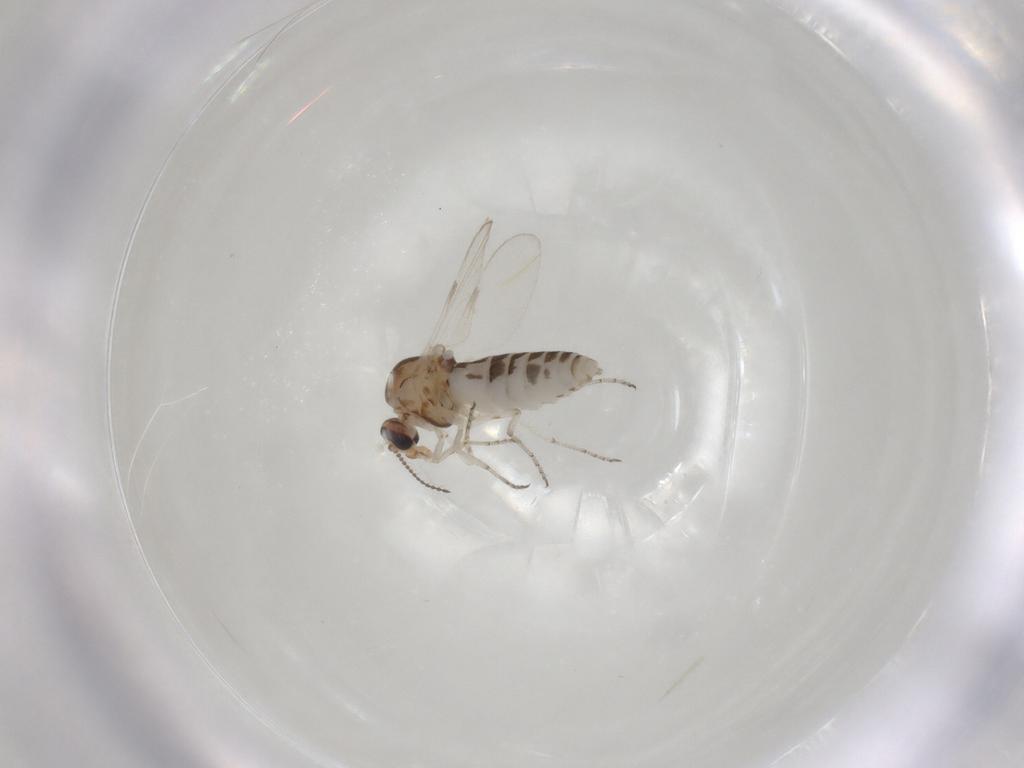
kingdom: Animalia
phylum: Arthropoda
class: Insecta
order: Diptera
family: Ceratopogonidae
